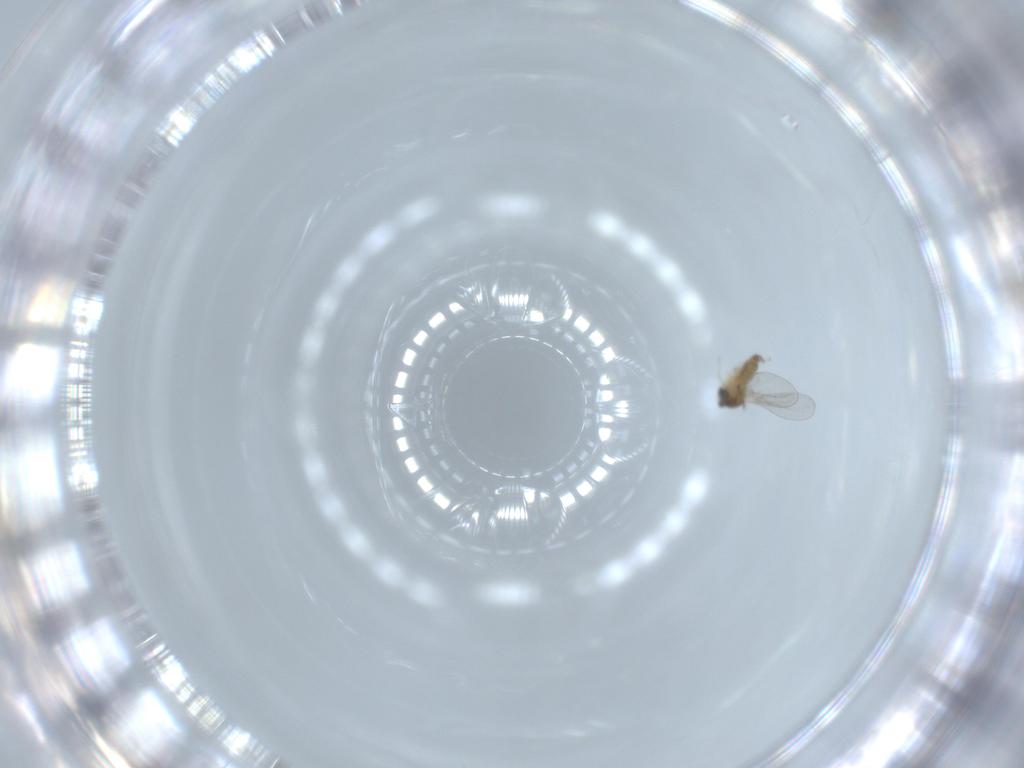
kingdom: Animalia
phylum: Arthropoda
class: Insecta
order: Diptera
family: Cecidomyiidae
